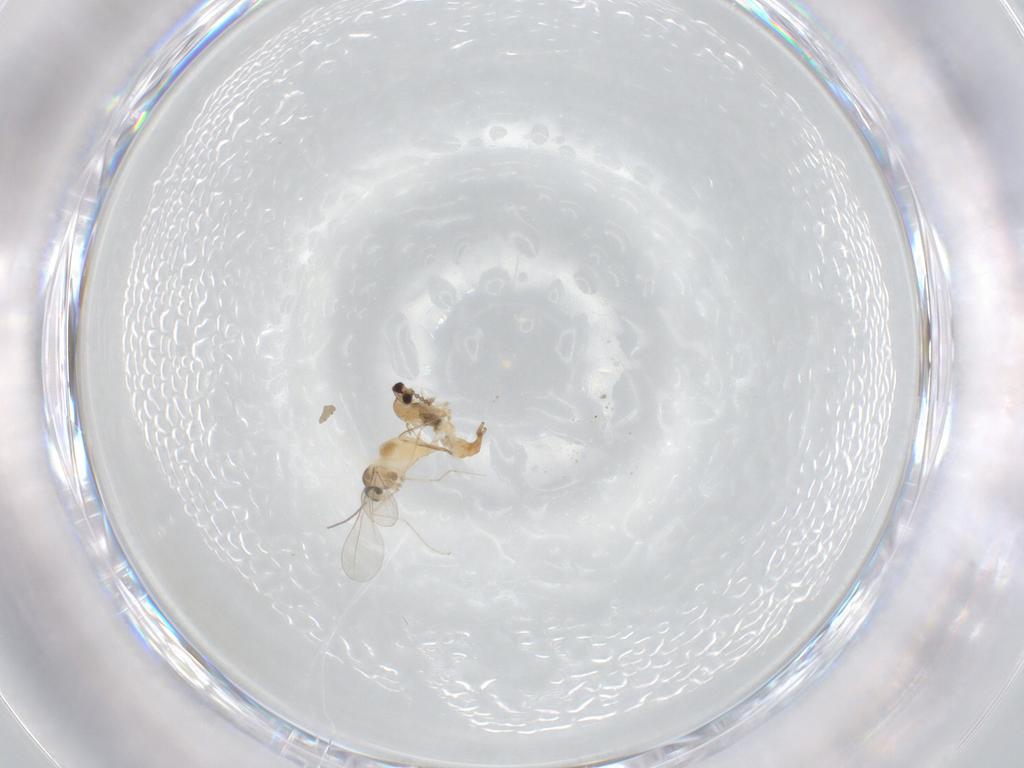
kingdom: Animalia
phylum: Arthropoda
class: Insecta
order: Diptera
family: Cecidomyiidae
